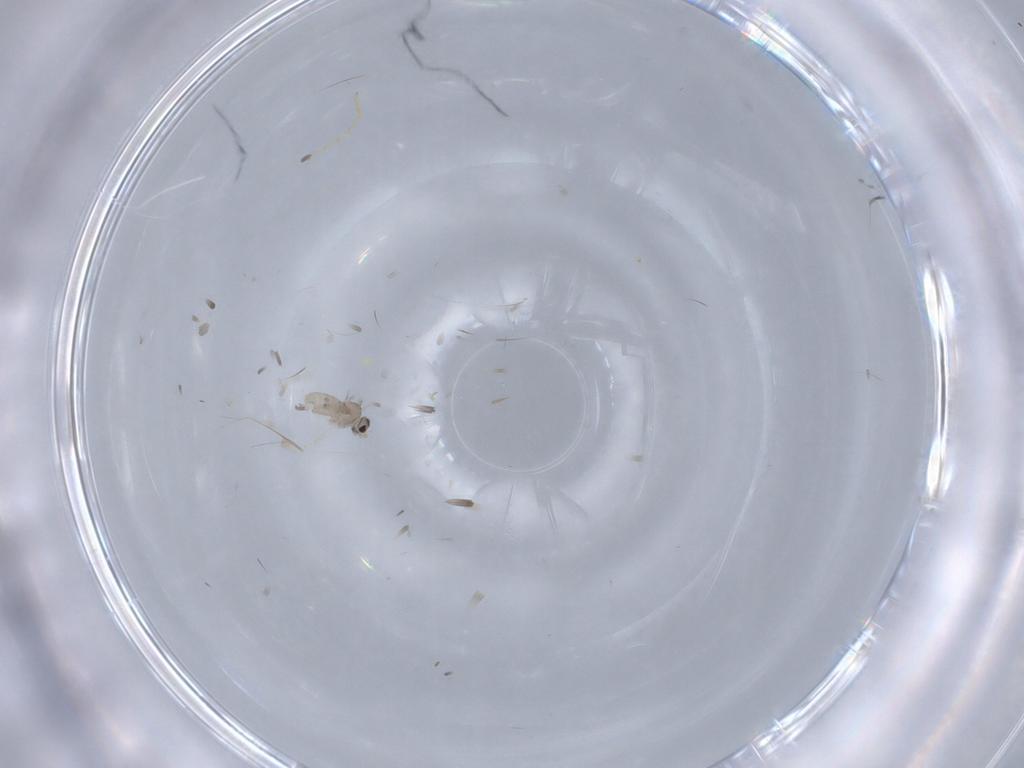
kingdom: Animalia
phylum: Arthropoda
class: Insecta
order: Diptera
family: Cecidomyiidae
